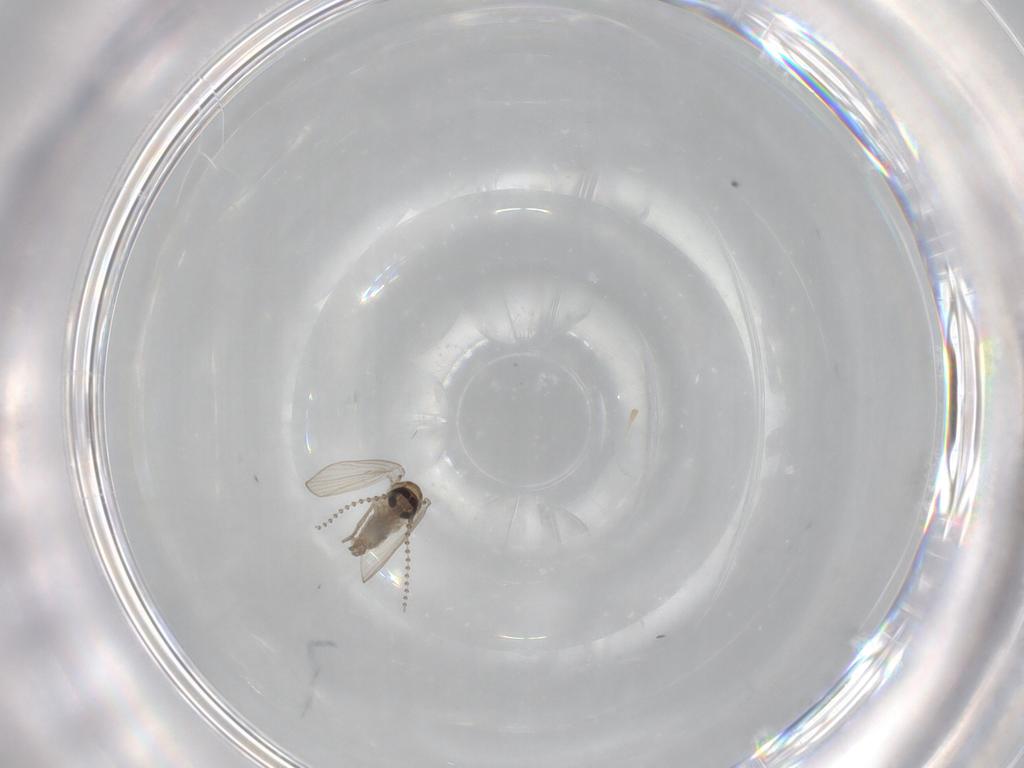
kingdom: Animalia
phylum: Arthropoda
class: Insecta
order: Diptera
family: Psychodidae
